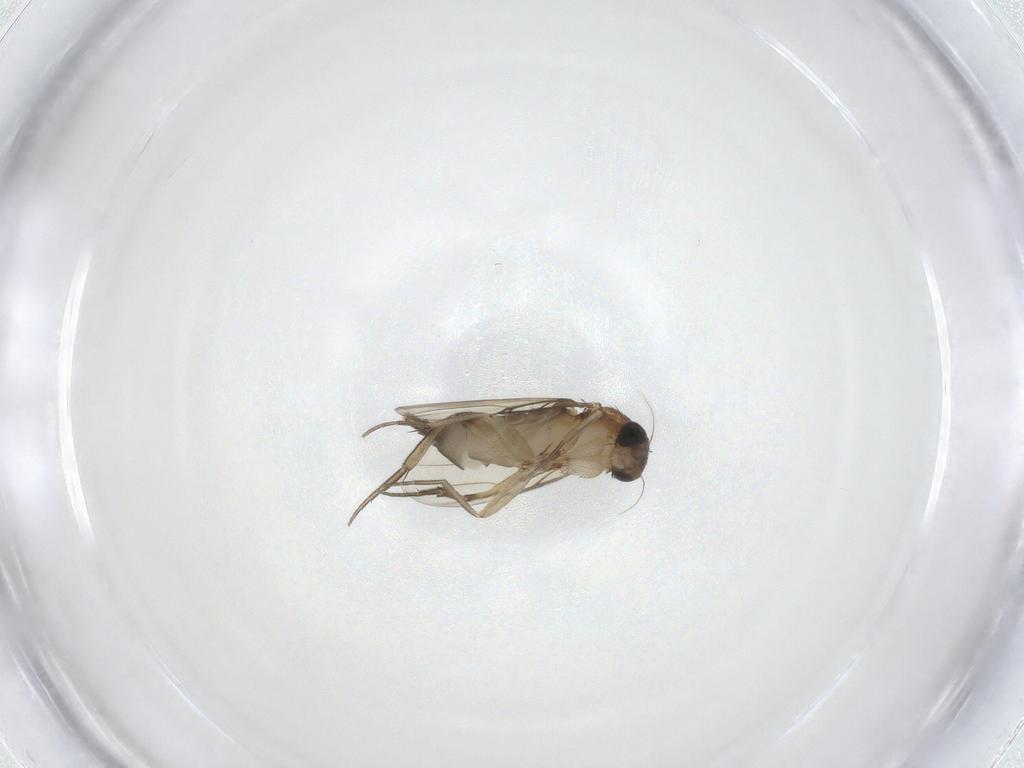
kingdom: Animalia
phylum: Arthropoda
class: Insecta
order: Diptera
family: Phoridae
